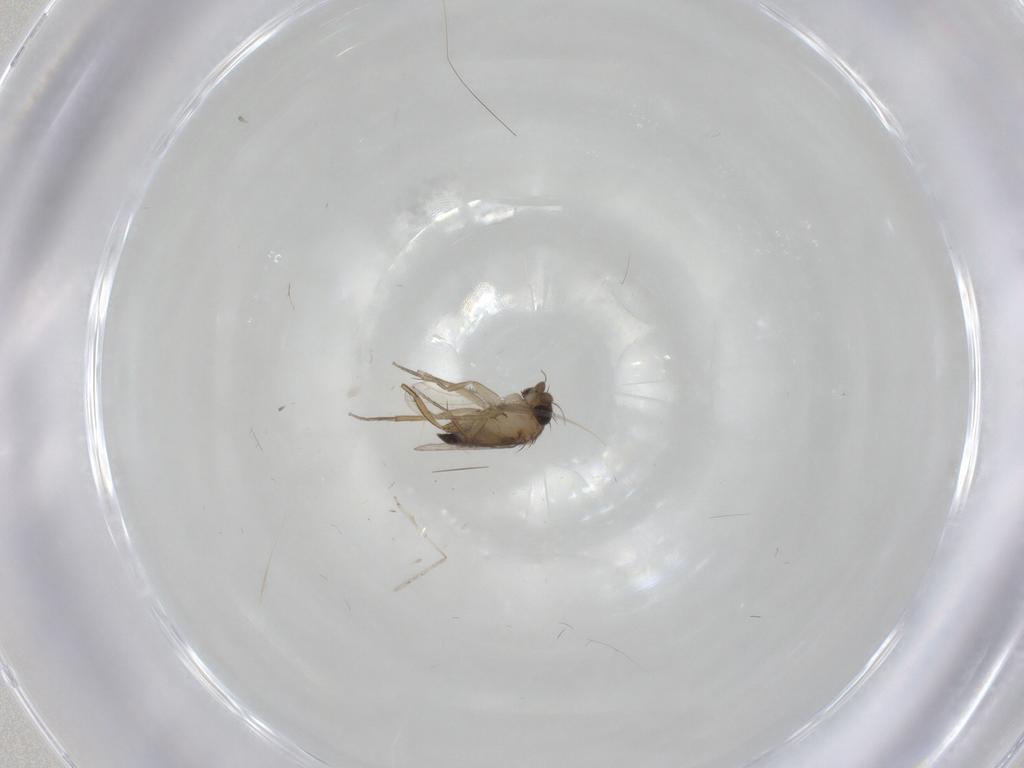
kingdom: Animalia
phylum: Arthropoda
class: Insecta
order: Diptera
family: Phoridae
